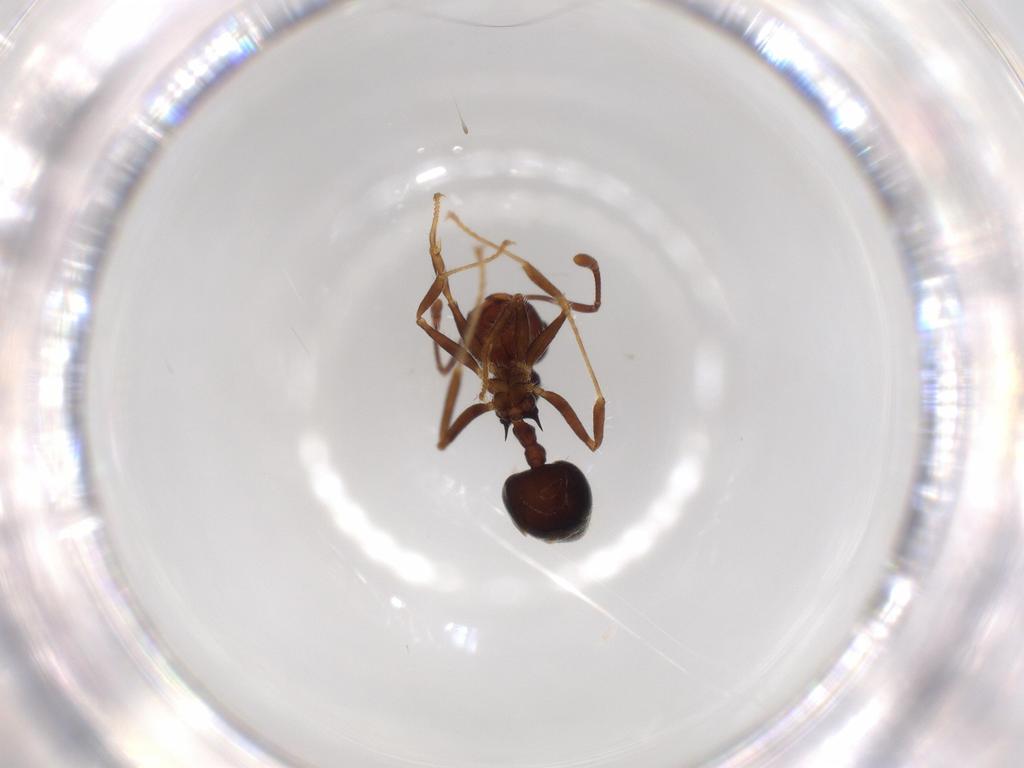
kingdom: Animalia
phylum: Arthropoda
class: Insecta
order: Hymenoptera
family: Formicidae
